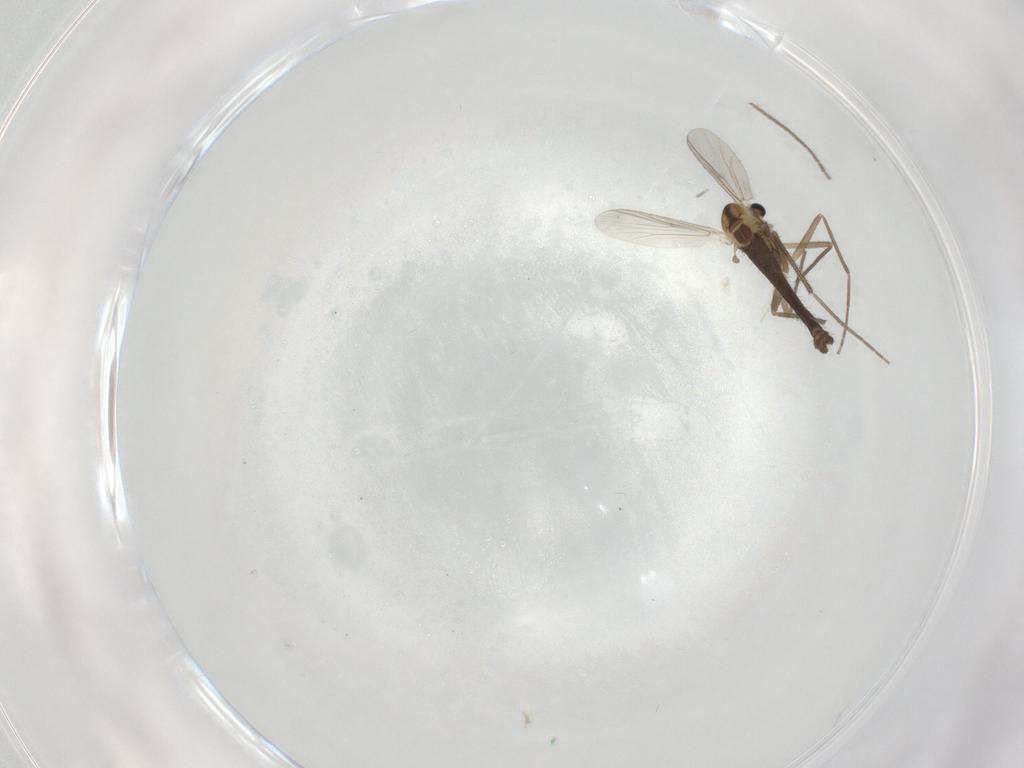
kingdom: Animalia
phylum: Arthropoda
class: Insecta
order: Diptera
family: Chironomidae
